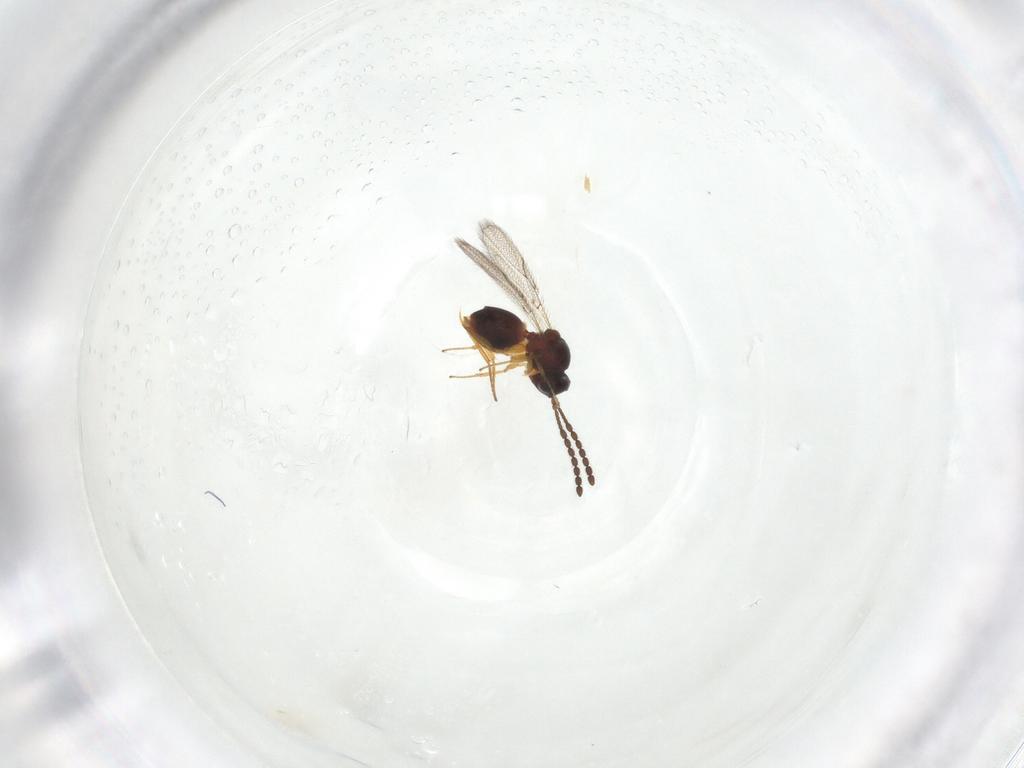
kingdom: Animalia
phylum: Arthropoda
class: Insecta
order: Hymenoptera
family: Figitidae
